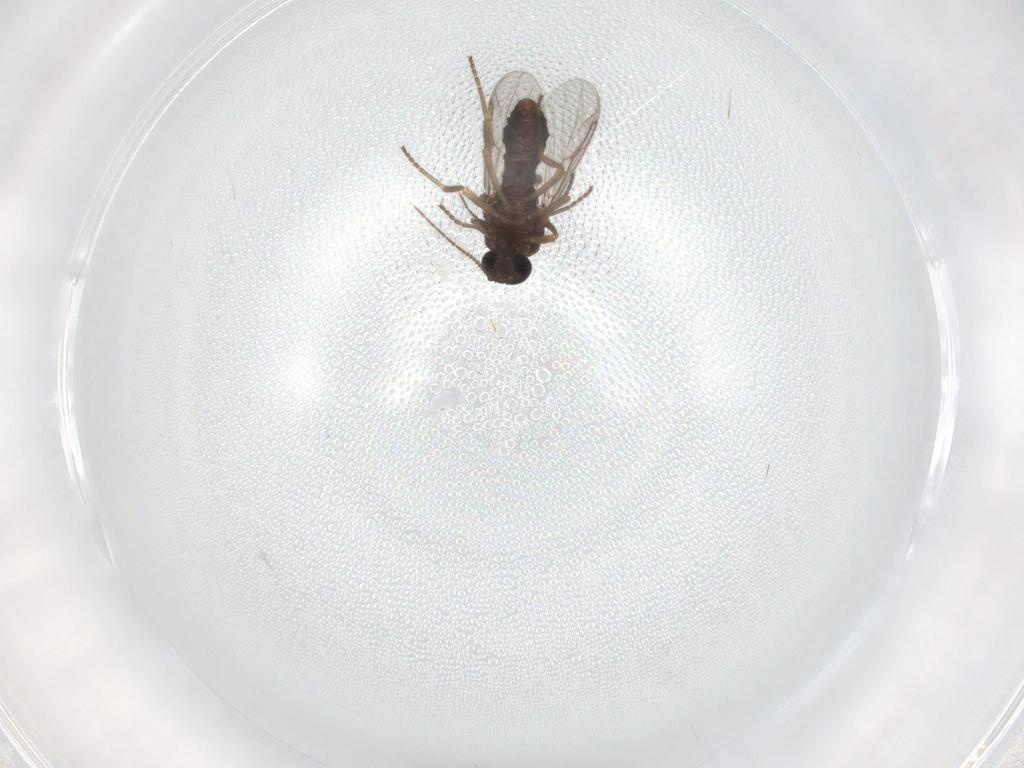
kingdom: Animalia
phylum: Arthropoda
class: Insecta
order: Diptera
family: Ceratopogonidae
